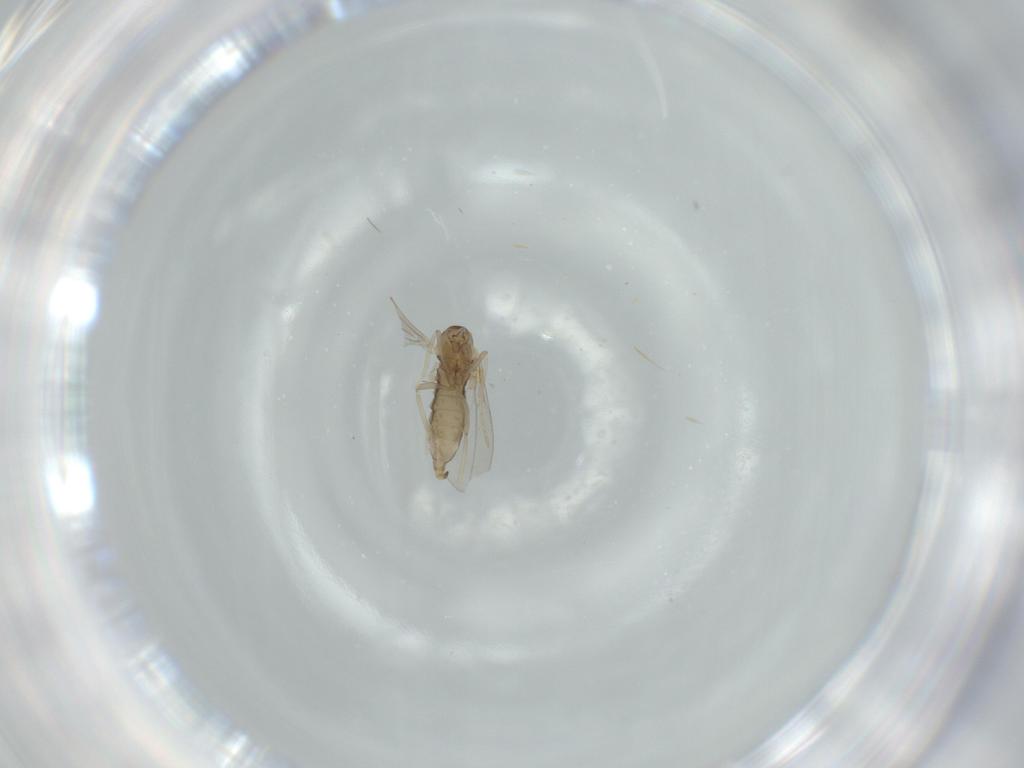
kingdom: Animalia
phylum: Arthropoda
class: Insecta
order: Diptera
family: Cecidomyiidae
